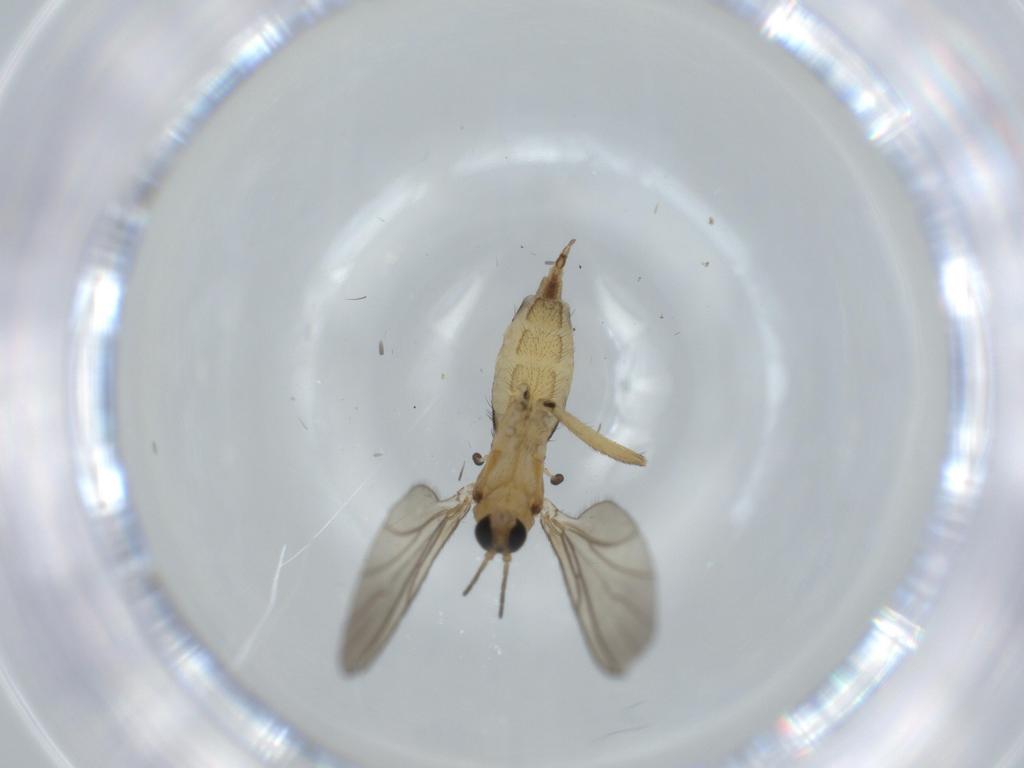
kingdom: Animalia
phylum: Arthropoda
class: Insecta
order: Diptera
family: Sciaridae
